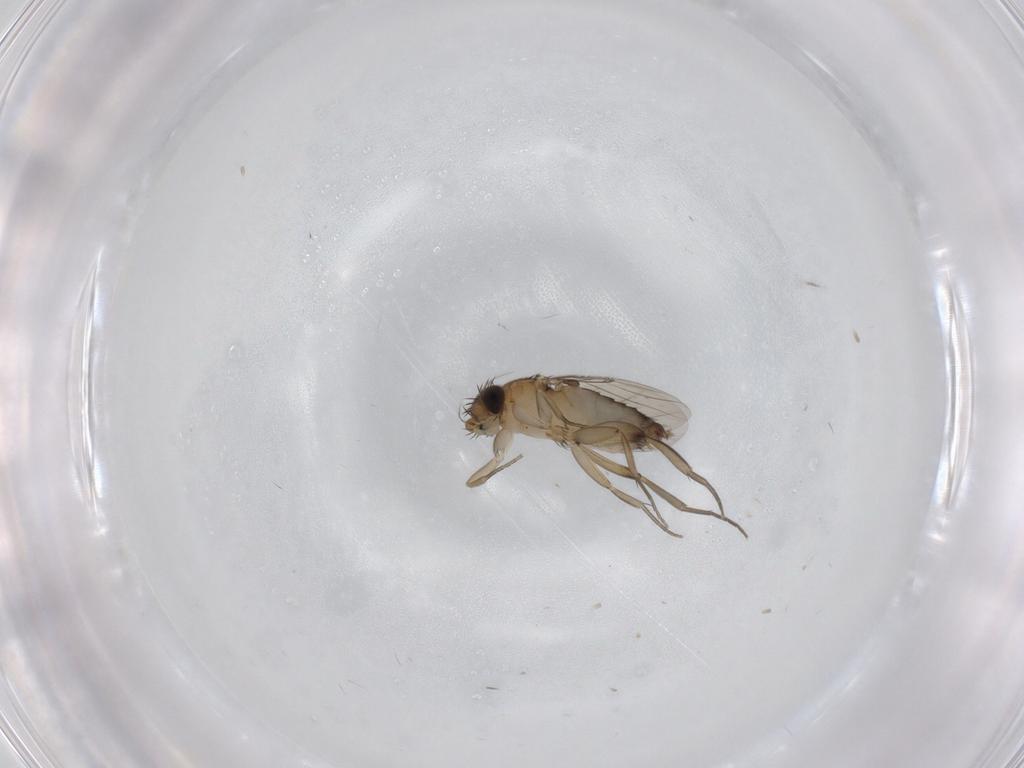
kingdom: Animalia
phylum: Arthropoda
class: Insecta
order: Diptera
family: Phoridae
